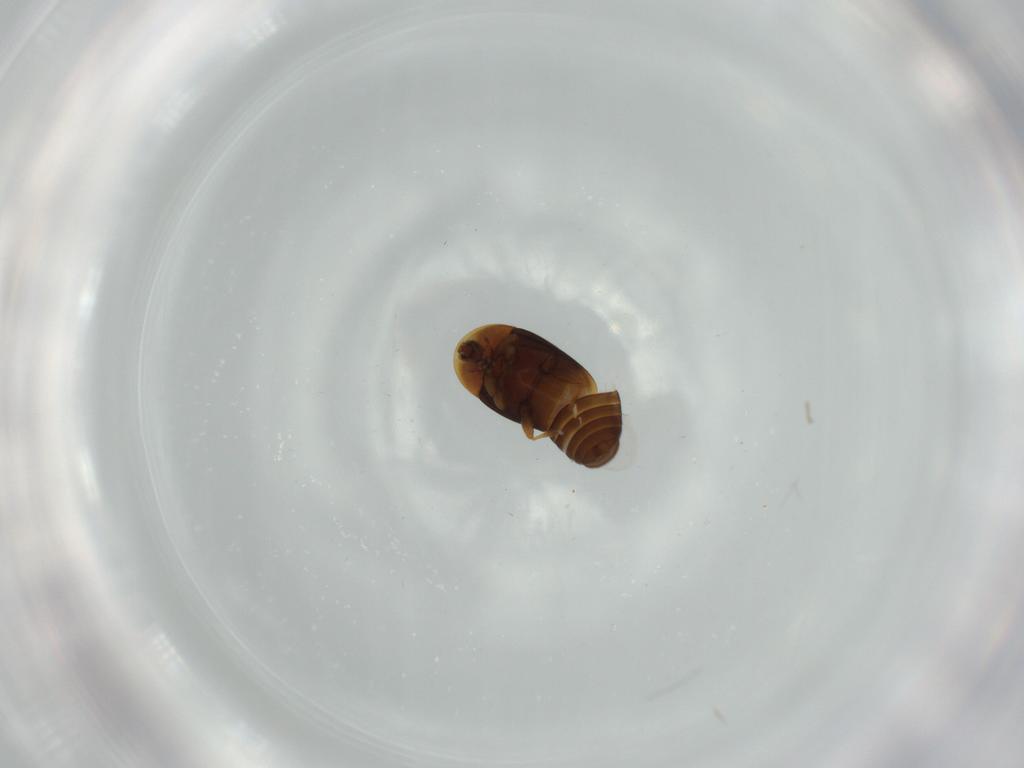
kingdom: Animalia
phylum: Arthropoda
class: Insecta
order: Coleoptera
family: Corylophidae
